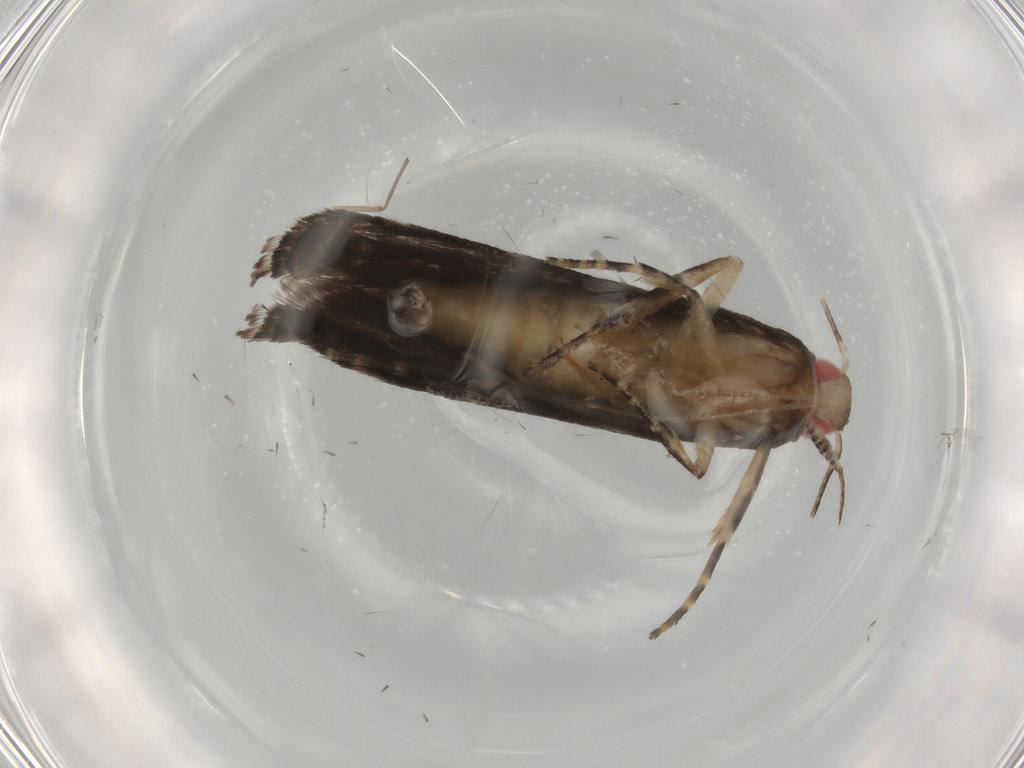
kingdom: Animalia
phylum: Arthropoda
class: Insecta
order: Lepidoptera
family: Gelechiidae
